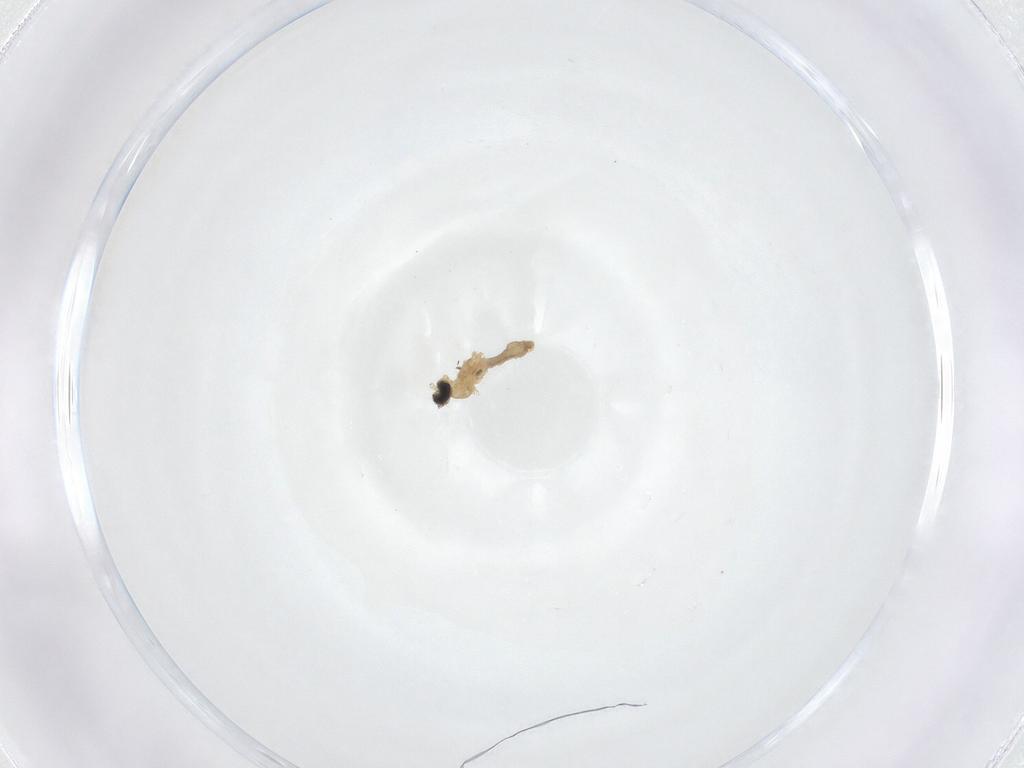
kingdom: Animalia
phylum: Arthropoda
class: Insecta
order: Diptera
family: Cecidomyiidae
